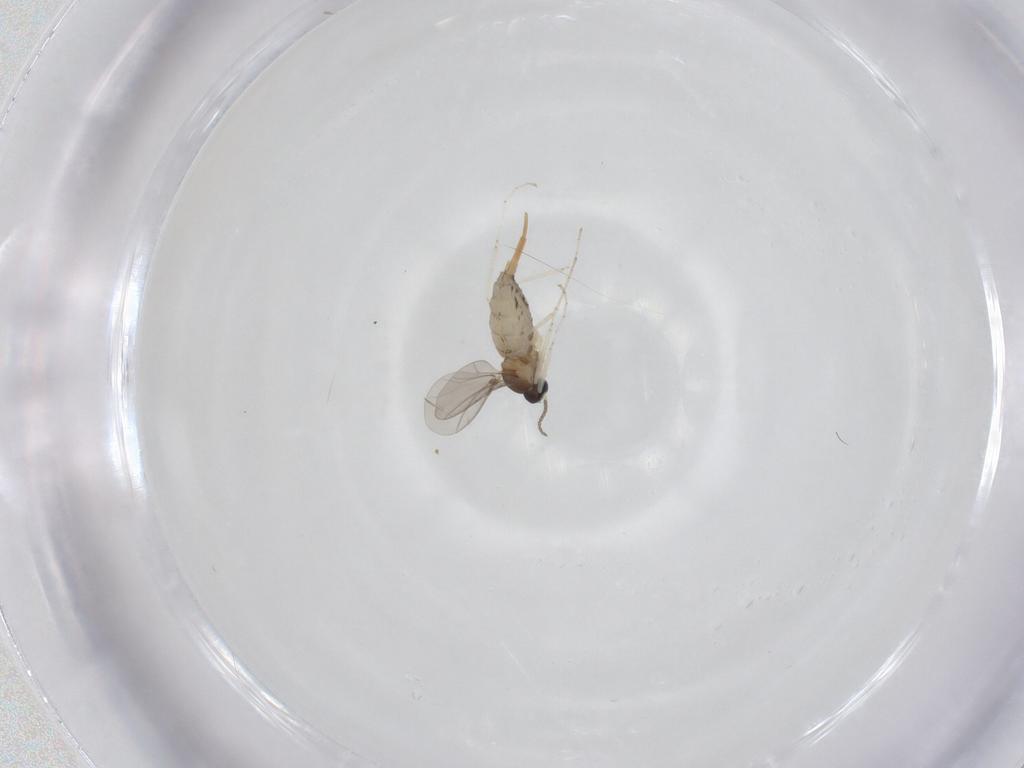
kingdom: Animalia
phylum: Arthropoda
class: Insecta
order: Diptera
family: Cecidomyiidae
